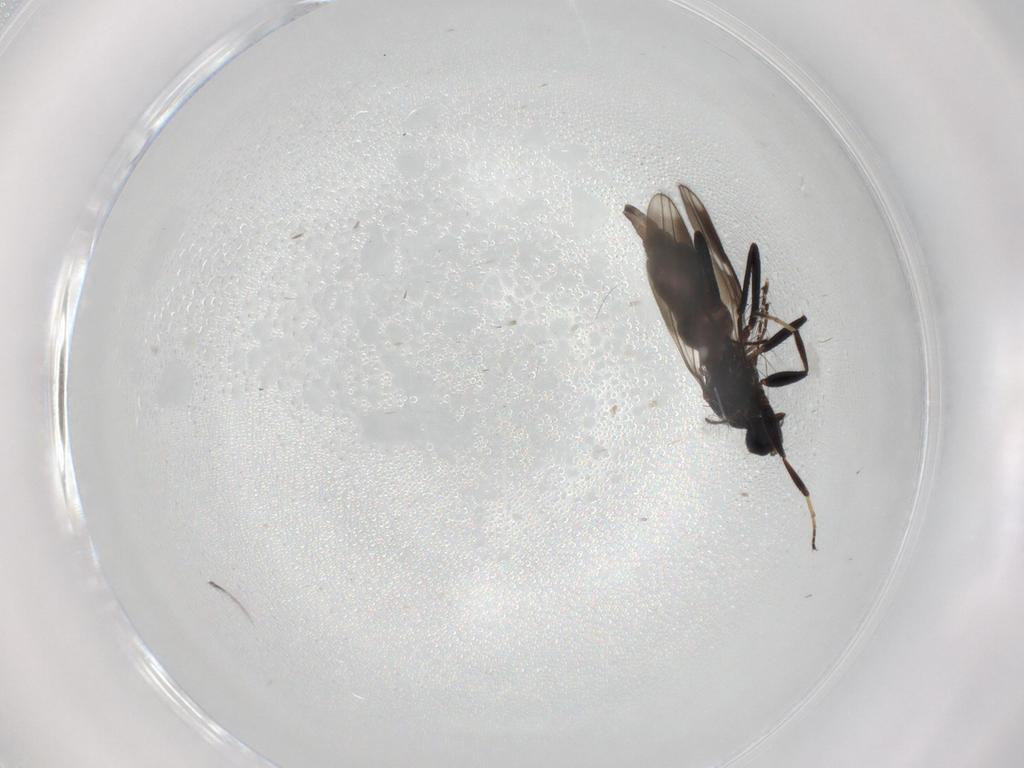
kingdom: Animalia
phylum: Arthropoda
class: Insecta
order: Diptera
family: Hybotidae
